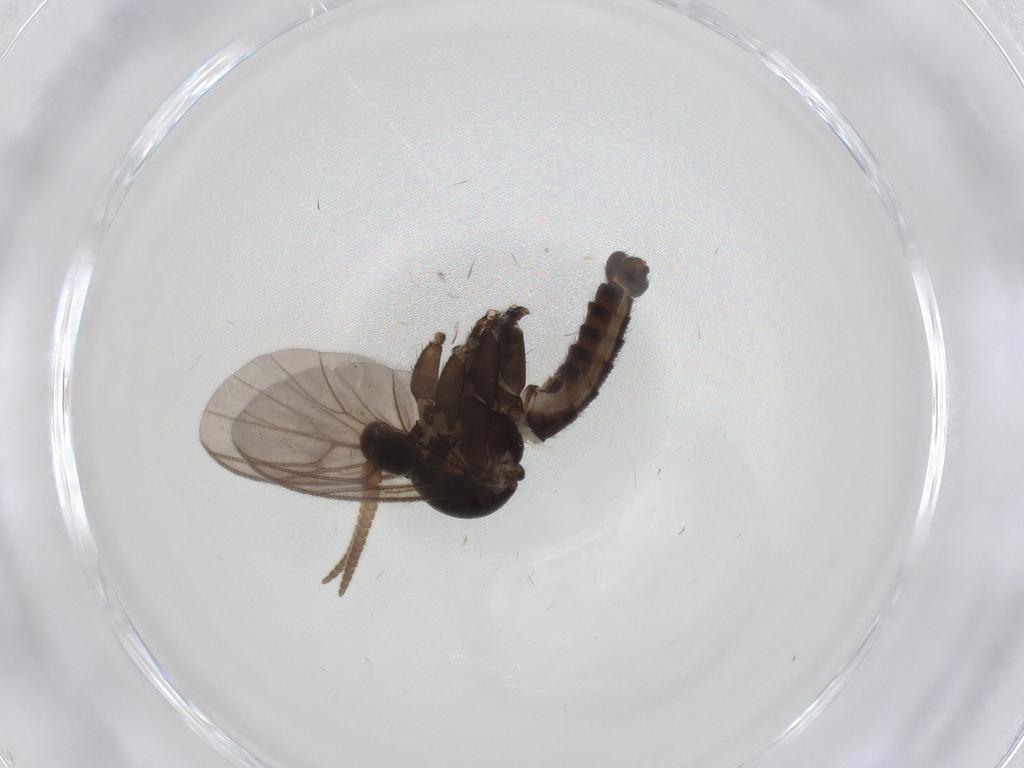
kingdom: Animalia
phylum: Arthropoda
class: Insecta
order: Diptera
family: Mycetophilidae
